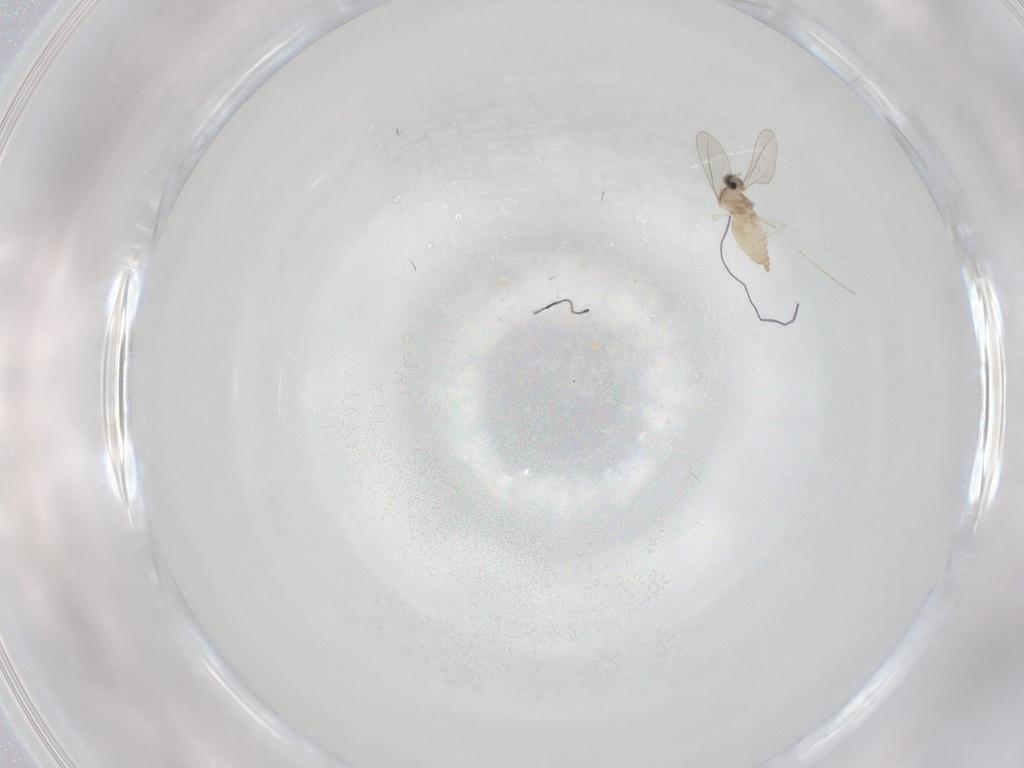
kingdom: Animalia
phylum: Arthropoda
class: Insecta
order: Diptera
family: Cecidomyiidae
